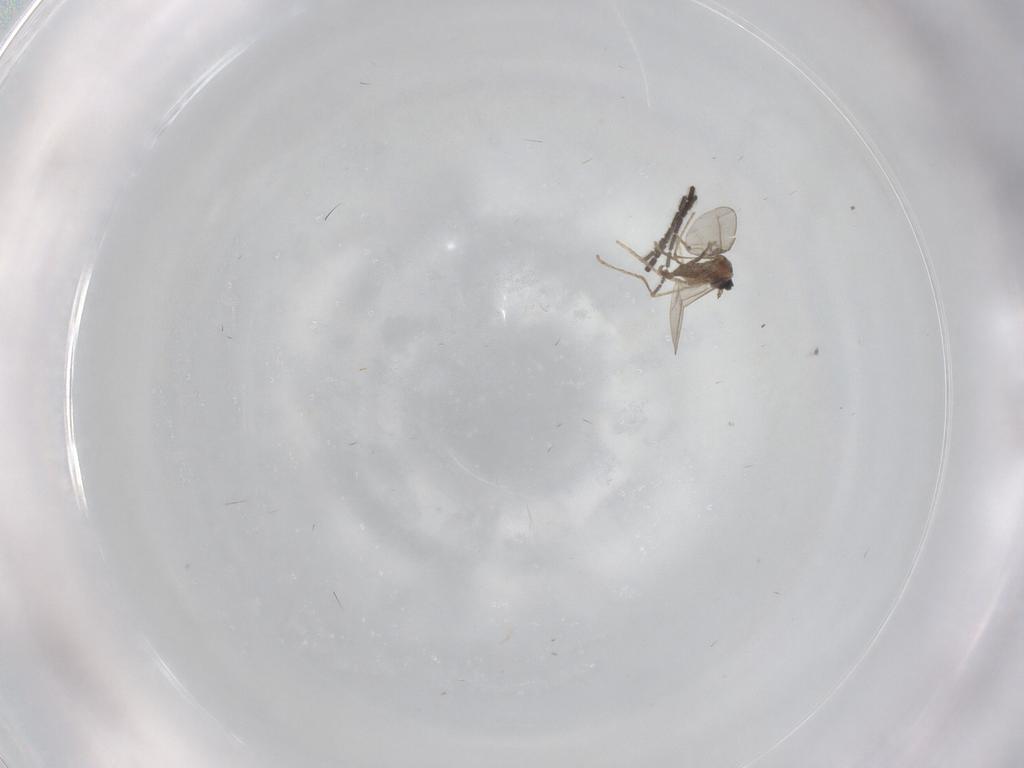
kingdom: Animalia
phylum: Arthropoda
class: Insecta
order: Diptera
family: Cecidomyiidae
